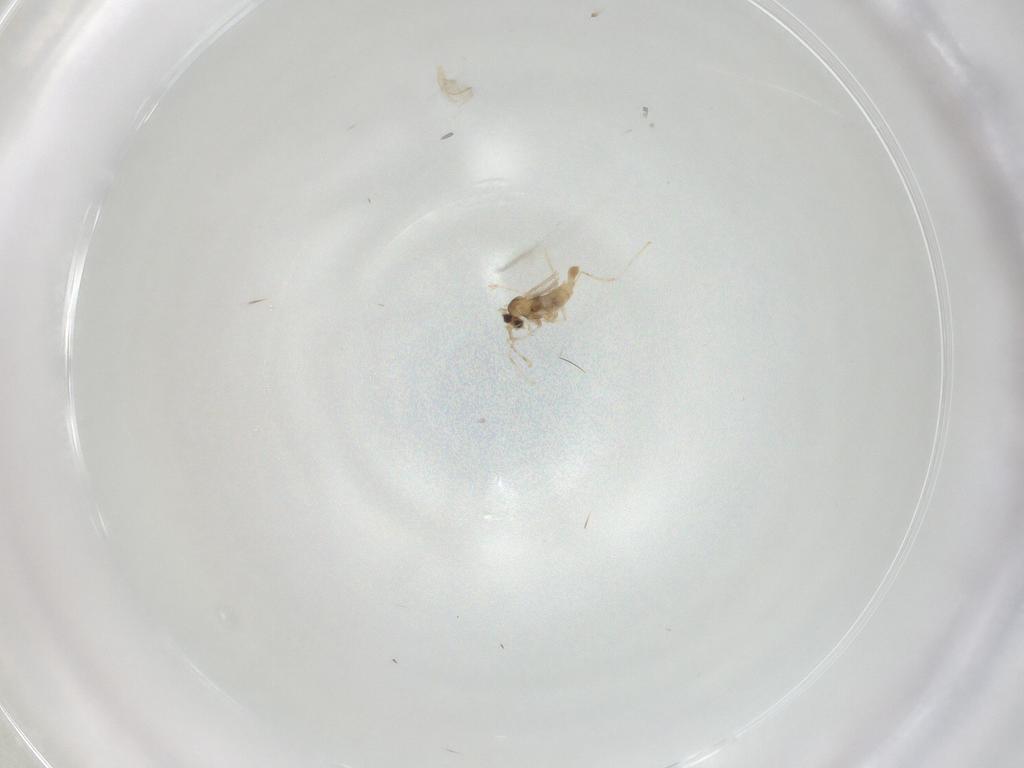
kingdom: Animalia
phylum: Arthropoda
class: Insecta
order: Diptera
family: Cecidomyiidae
